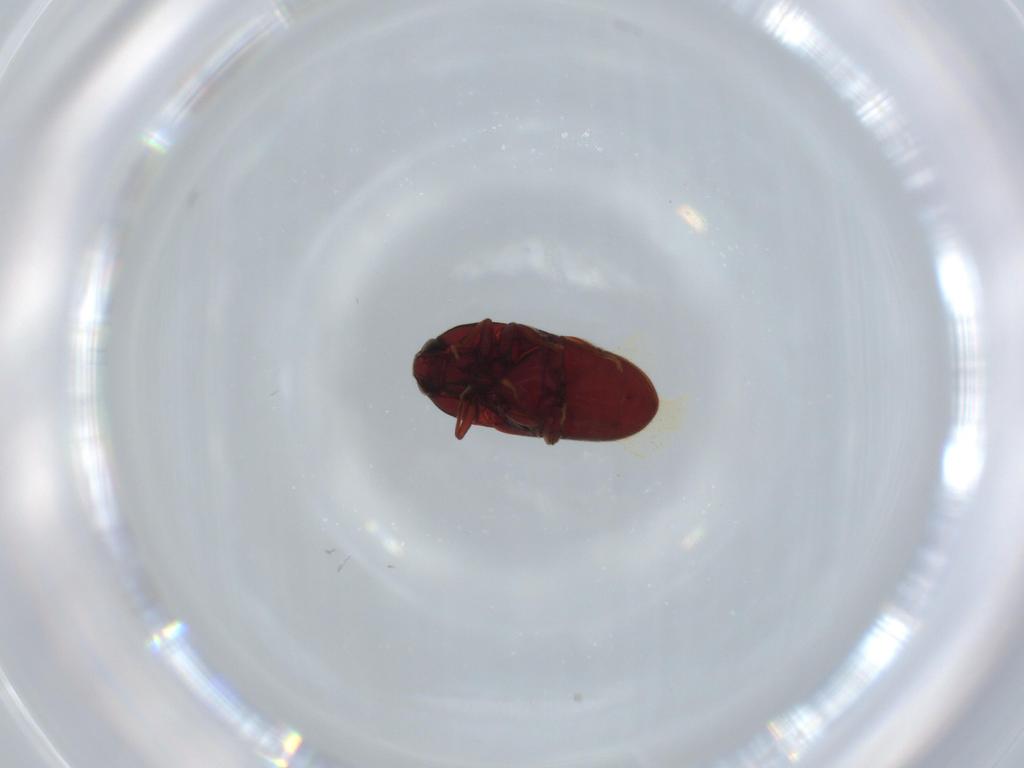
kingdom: Animalia
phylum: Arthropoda
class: Insecta
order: Coleoptera
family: Throscidae
